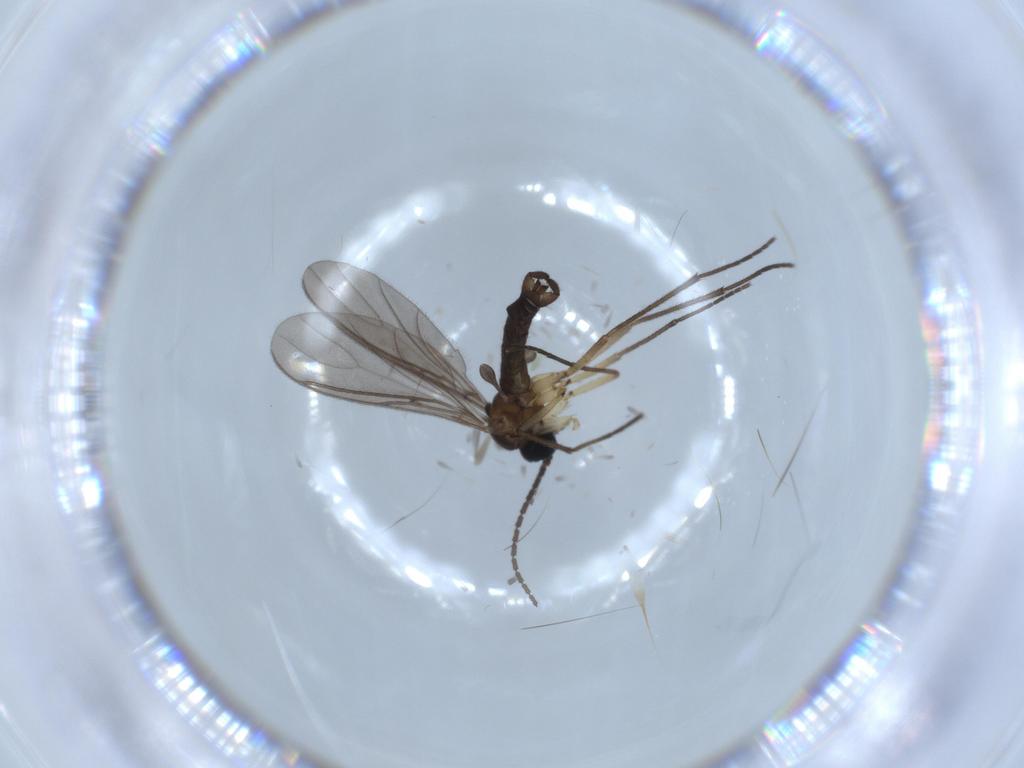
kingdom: Animalia
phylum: Arthropoda
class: Insecta
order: Diptera
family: Sciaridae
